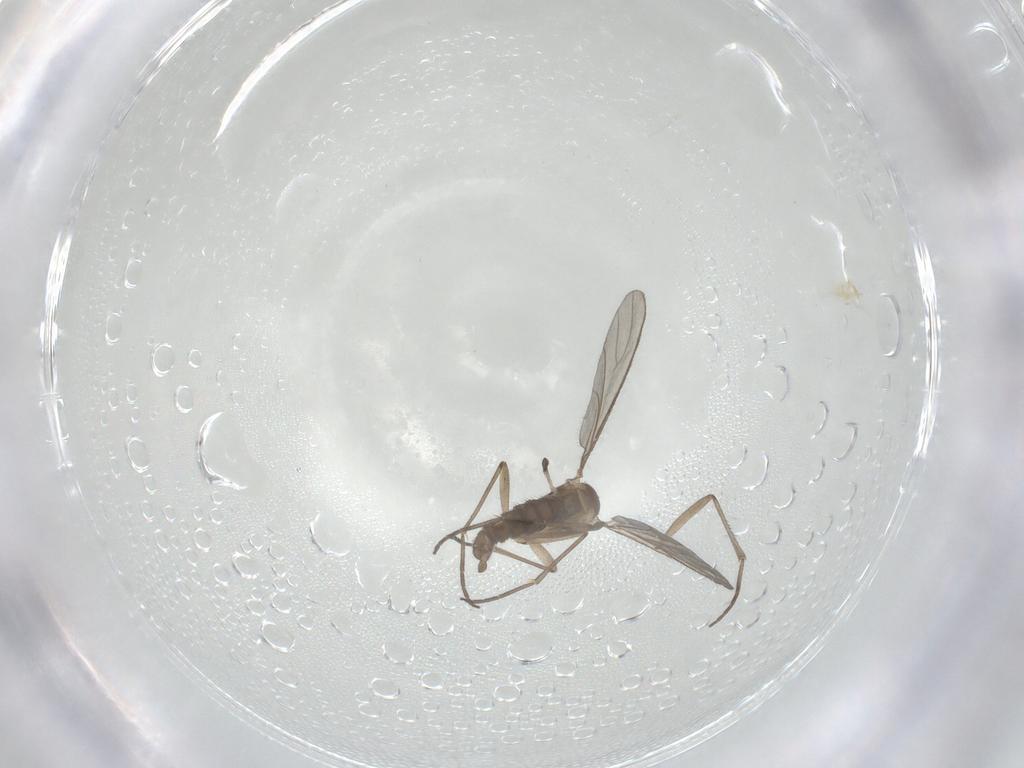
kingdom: Animalia
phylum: Arthropoda
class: Insecta
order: Diptera
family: Sciaridae
